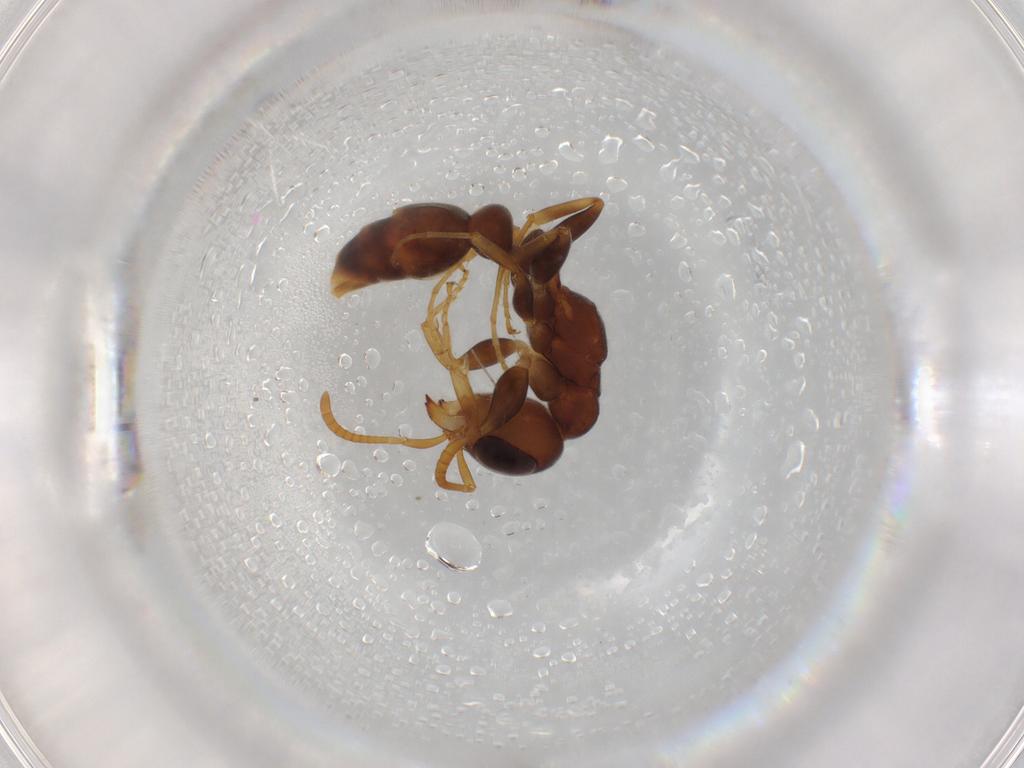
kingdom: Animalia
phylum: Arthropoda
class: Insecta
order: Hymenoptera
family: Formicidae
